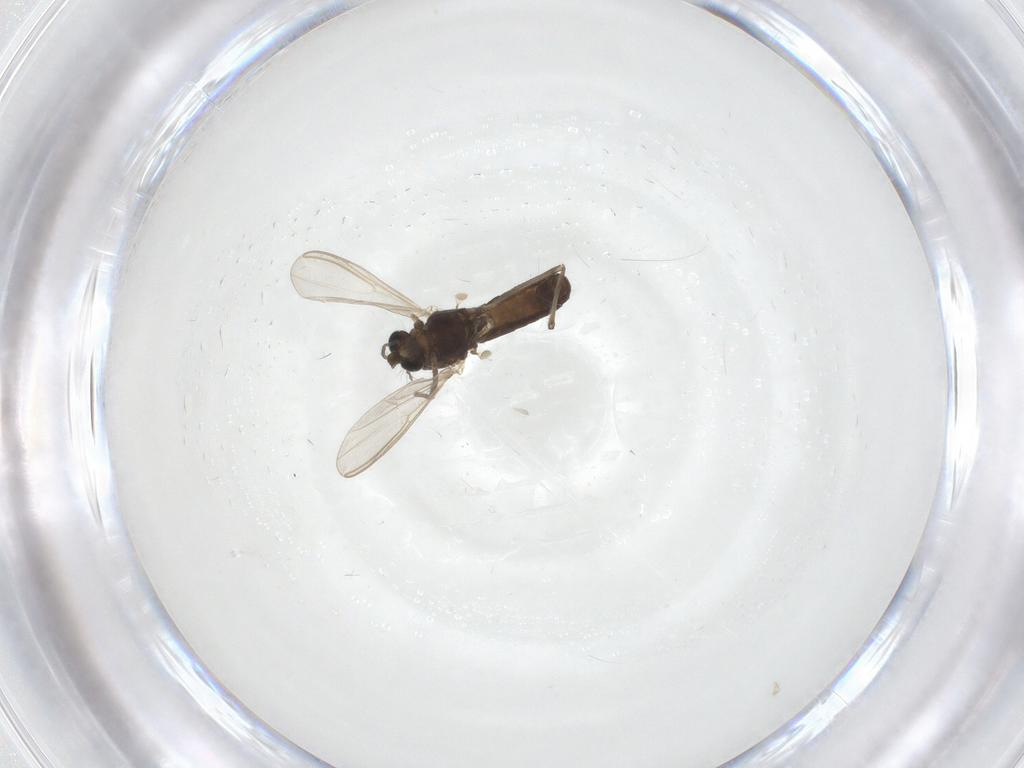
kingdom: Animalia
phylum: Arthropoda
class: Insecta
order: Diptera
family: Chironomidae
